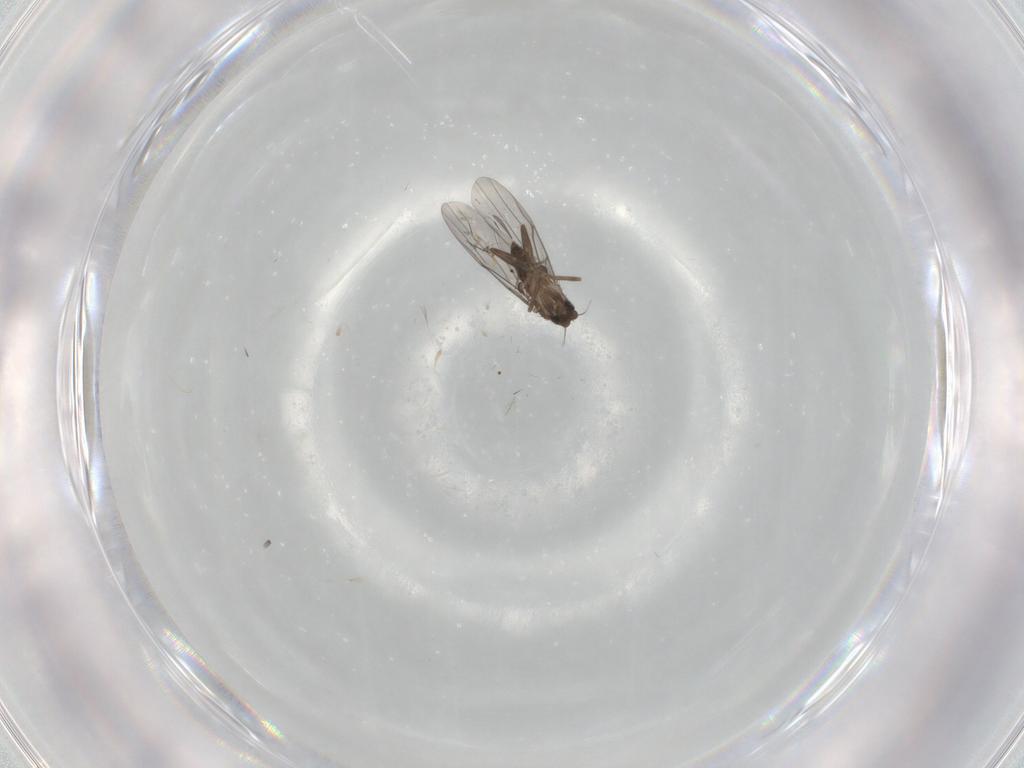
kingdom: Animalia
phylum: Arthropoda
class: Insecta
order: Diptera
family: Phoridae
